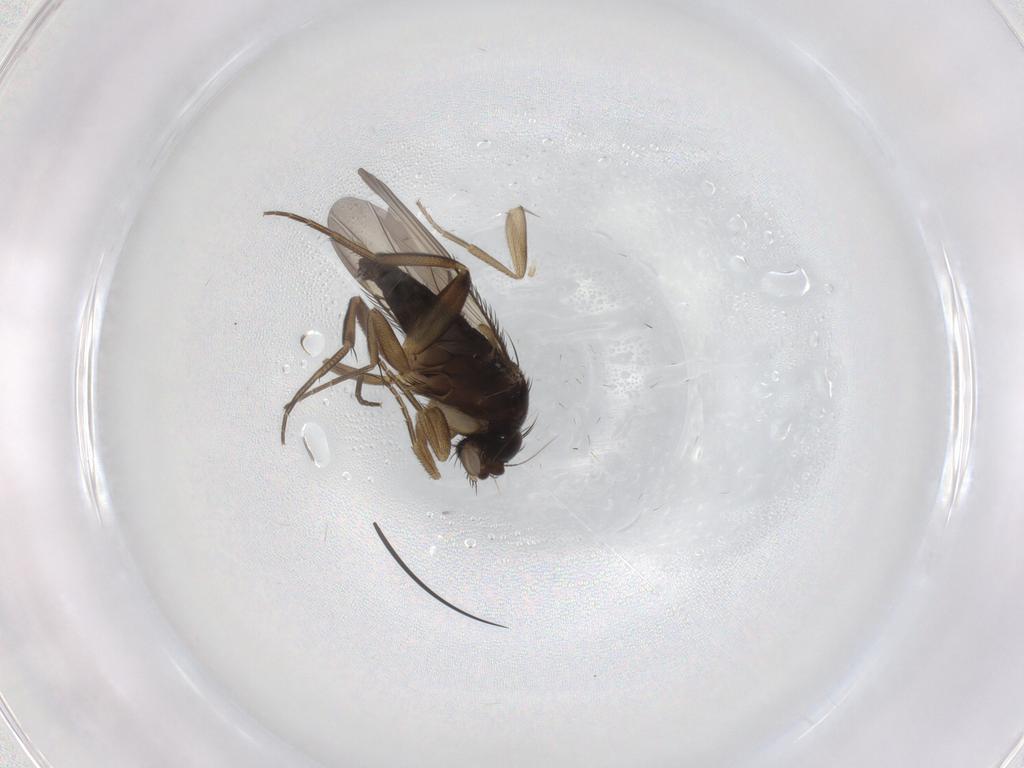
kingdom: Animalia
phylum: Arthropoda
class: Insecta
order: Diptera
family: Phoridae
